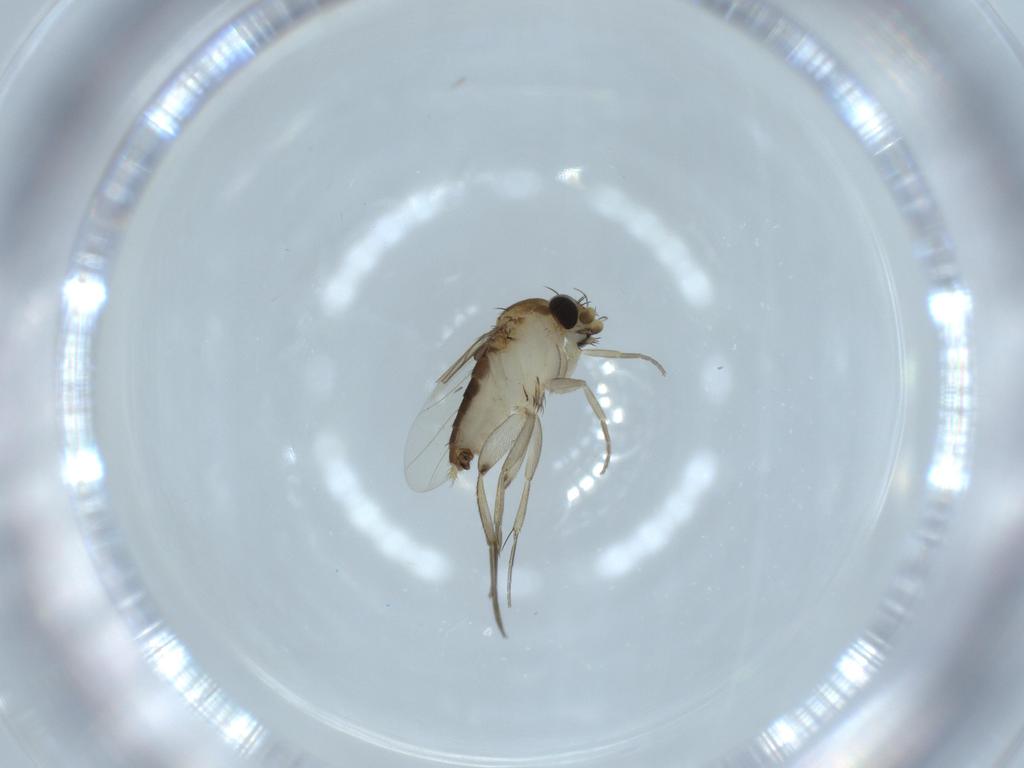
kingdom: Animalia
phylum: Arthropoda
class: Insecta
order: Diptera
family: Phoridae
